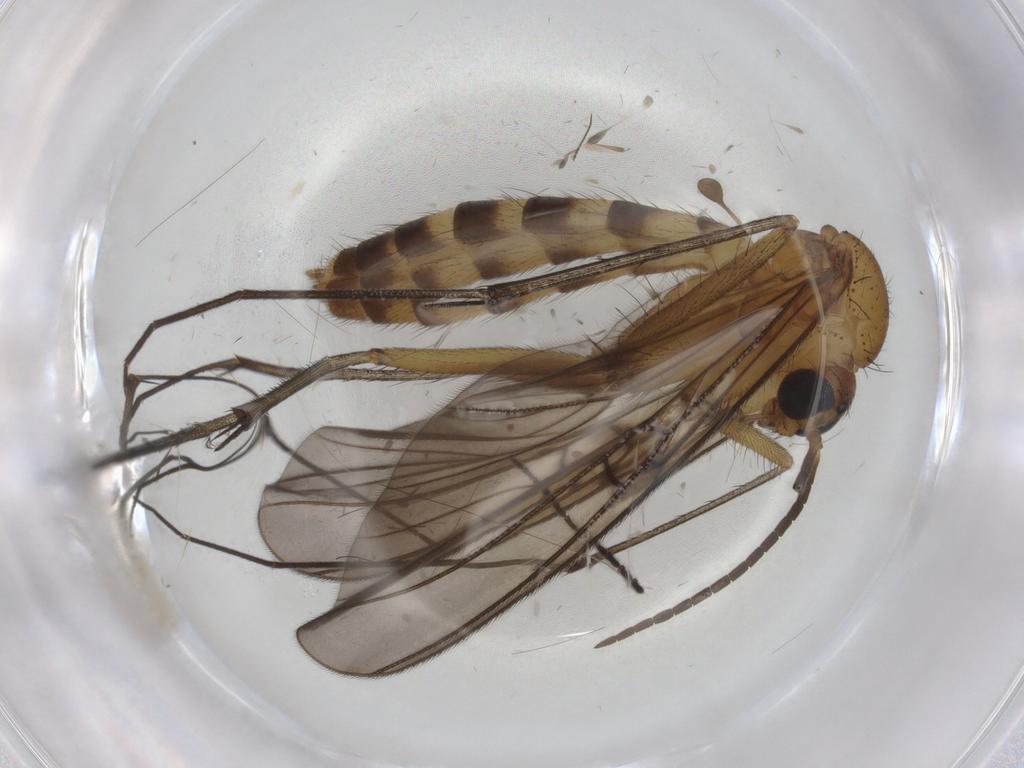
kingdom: Animalia
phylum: Arthropoda
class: Insecta
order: Diptera
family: Mycetophilidae
